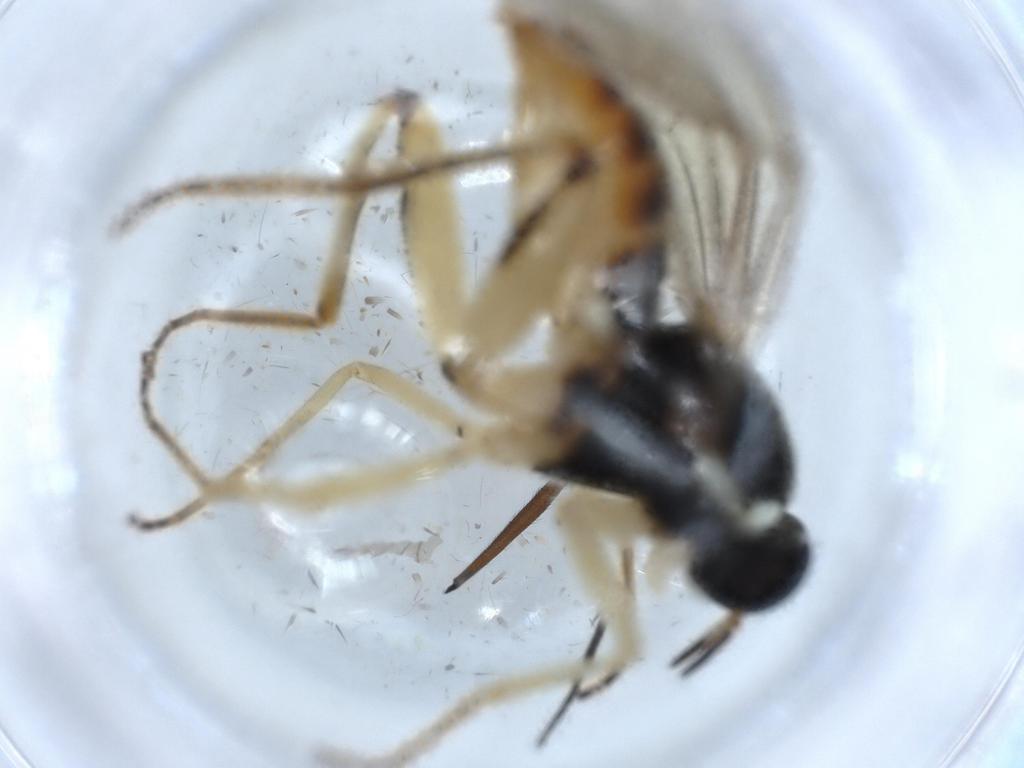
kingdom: Animalia
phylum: Arthropoda
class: Insecta
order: Diptera
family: Chironomidae
